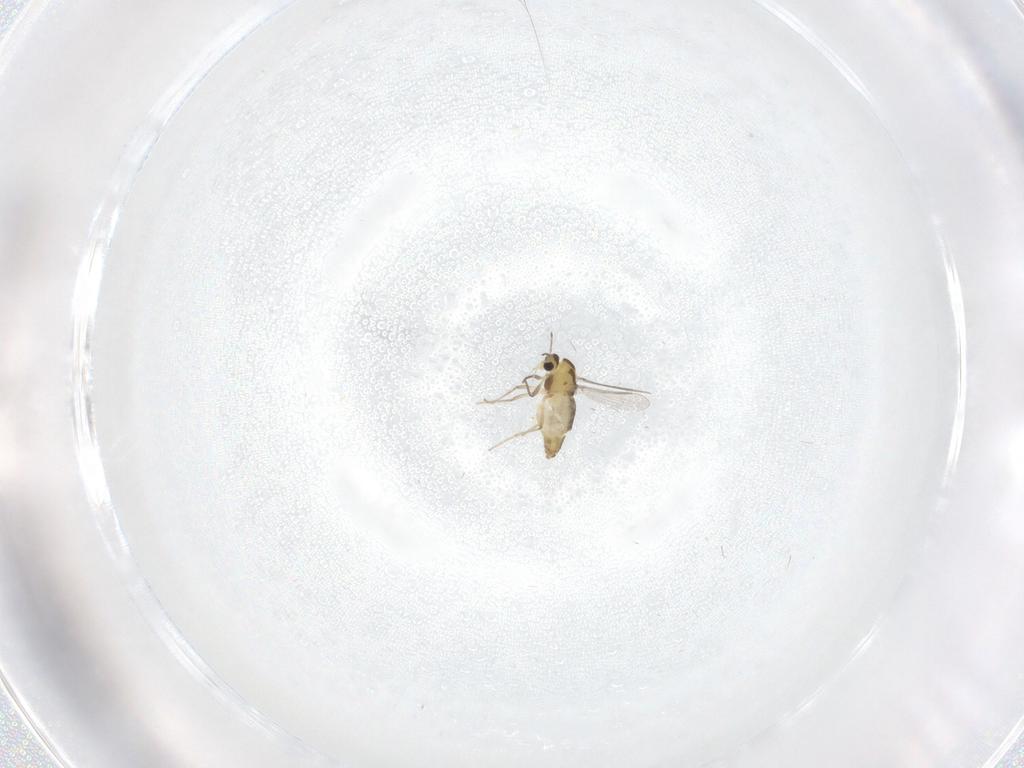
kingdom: Animalia
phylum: Arthropoda
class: Insecta
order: Diptera
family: Chironomidae
